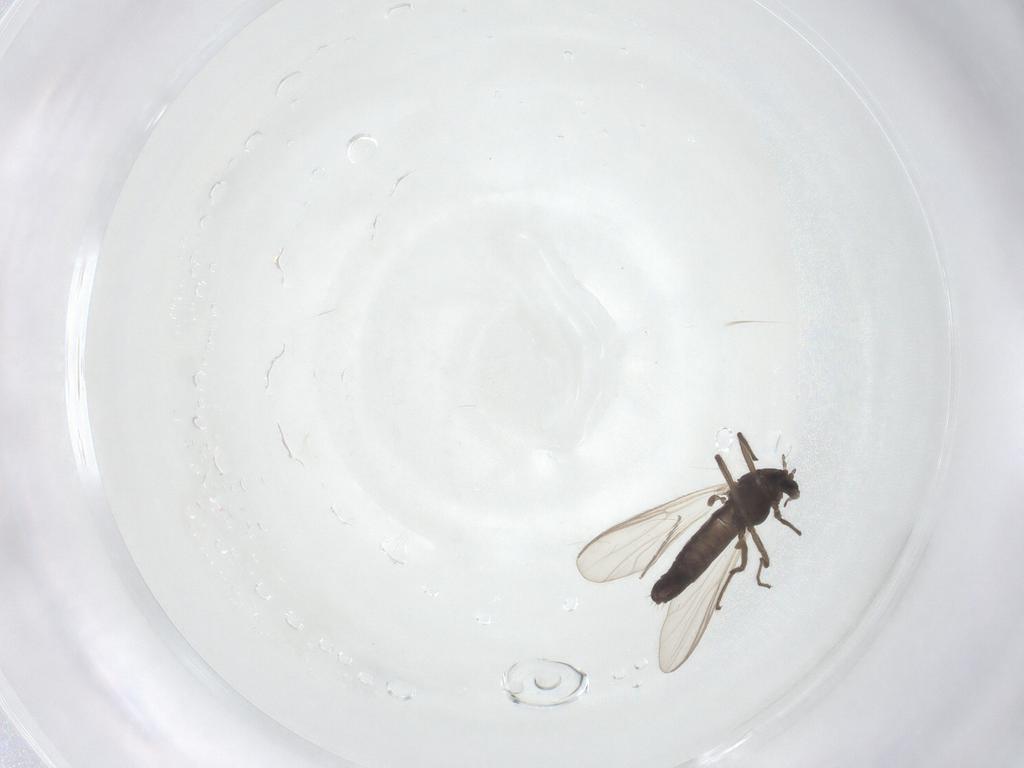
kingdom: Animalia
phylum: Arthropoda
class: Insecta
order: Diptera
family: Chironomidae
